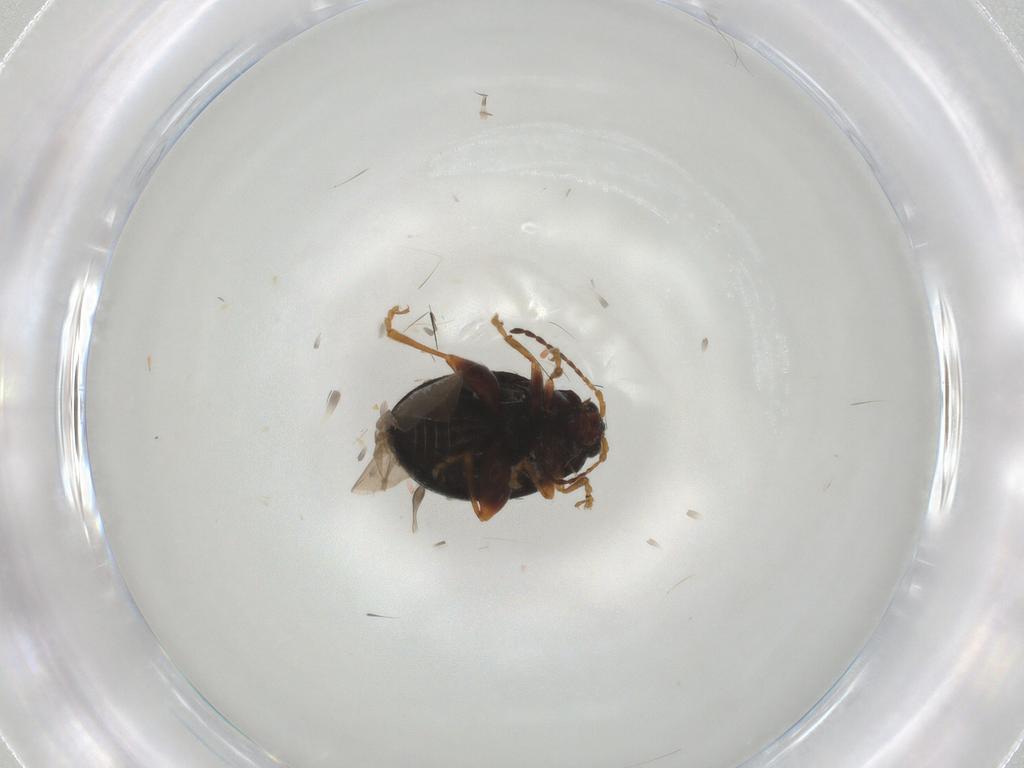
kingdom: Animalia
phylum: Arthropoda
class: Insecta
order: Coleoptera
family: Chrysomelidae
